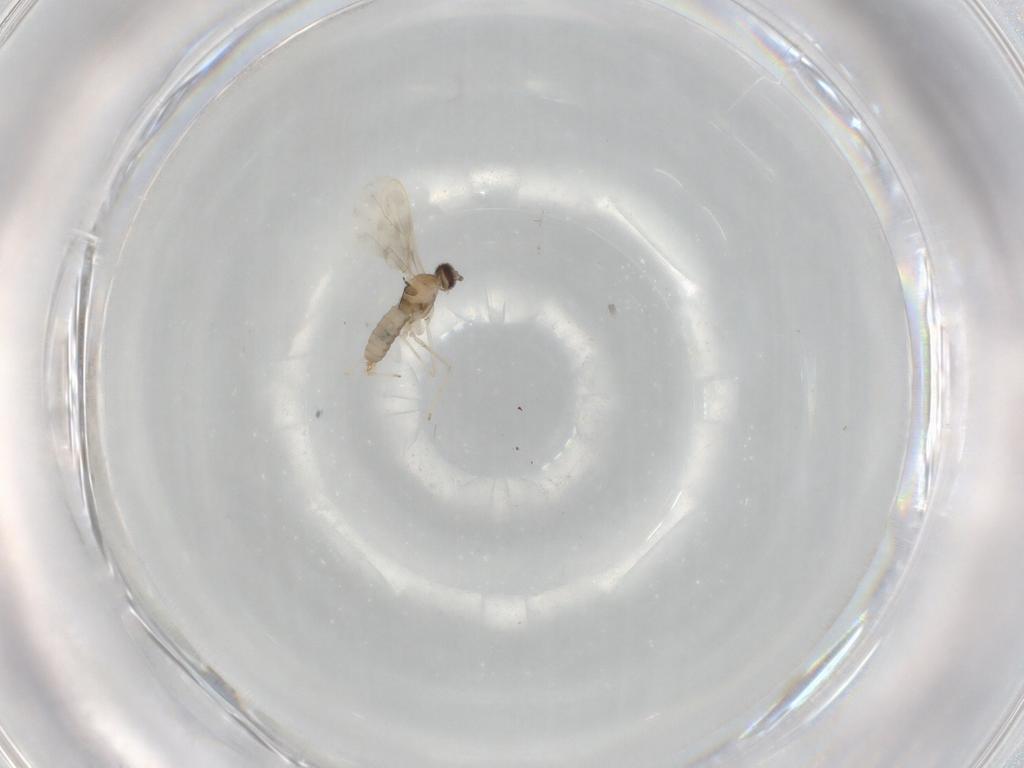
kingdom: Animalia
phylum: Arthropoda
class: Insecta
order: Diptera
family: Cecidomyiidae
